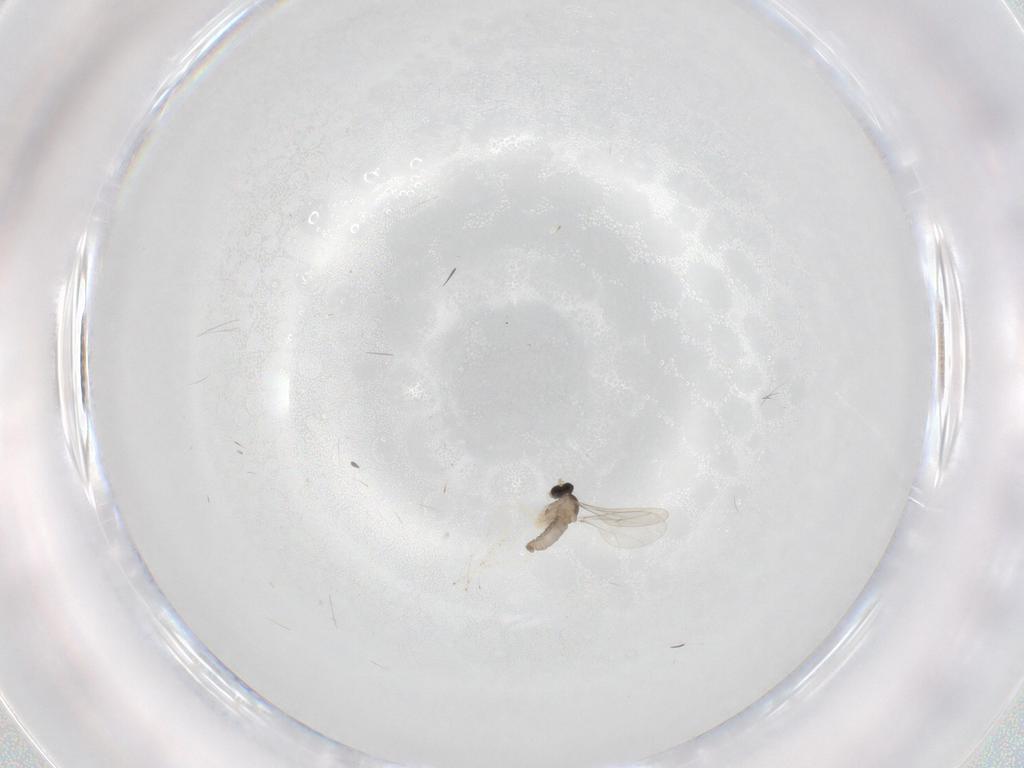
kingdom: Animalia
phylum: Arthropoda
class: Insecta
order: Diptera
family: Cecidomyiidae
